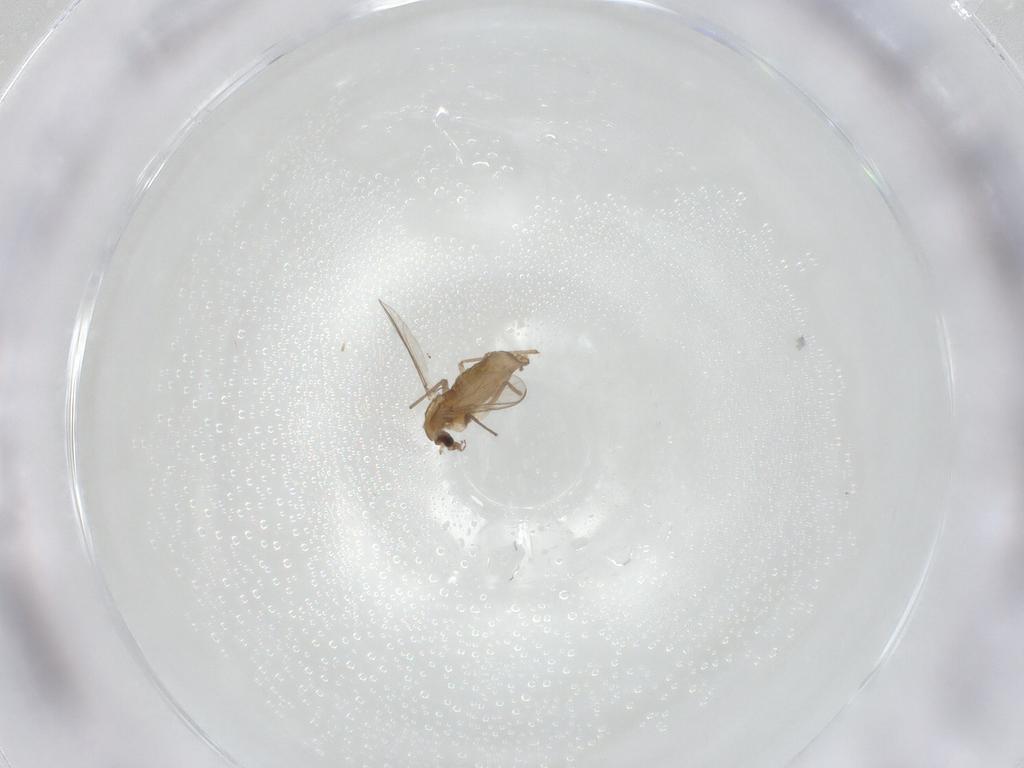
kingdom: Animalia
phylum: Arthropoda
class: Insecta
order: Diptera
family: Chironomidae
